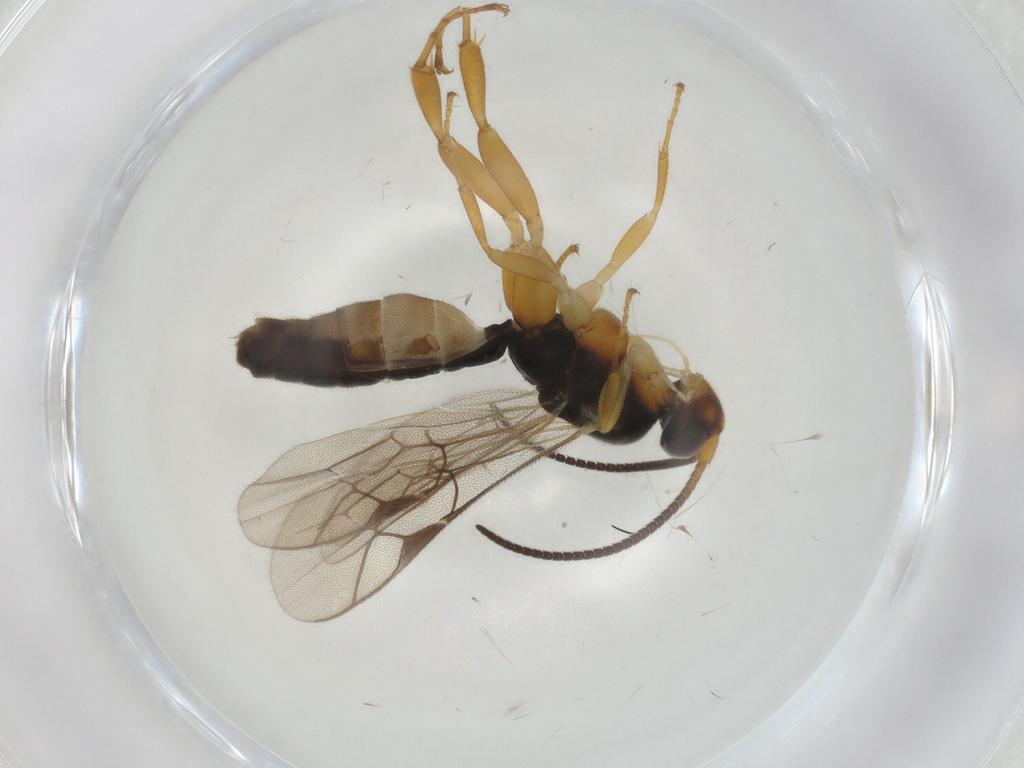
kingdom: Animalia
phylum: Arthropoda
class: Insecta
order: Hymenoptera
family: Ichneumonidae
